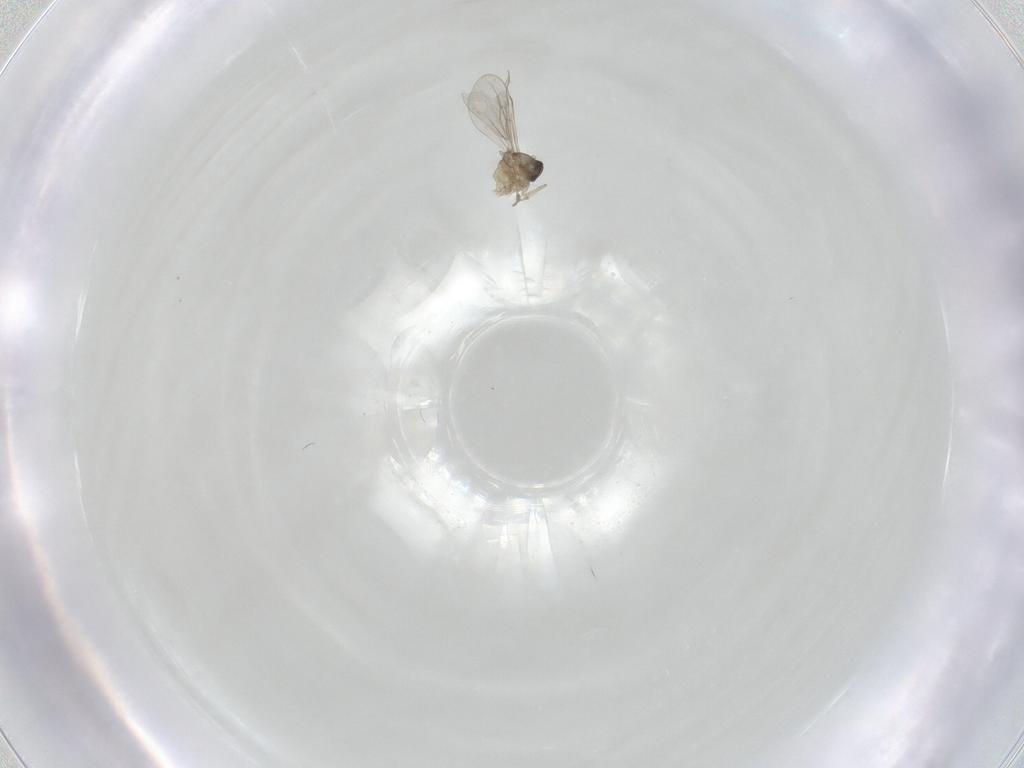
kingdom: Animalia
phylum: Arthropoda
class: Insecta
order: Diptera
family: Cecidomyiidae
